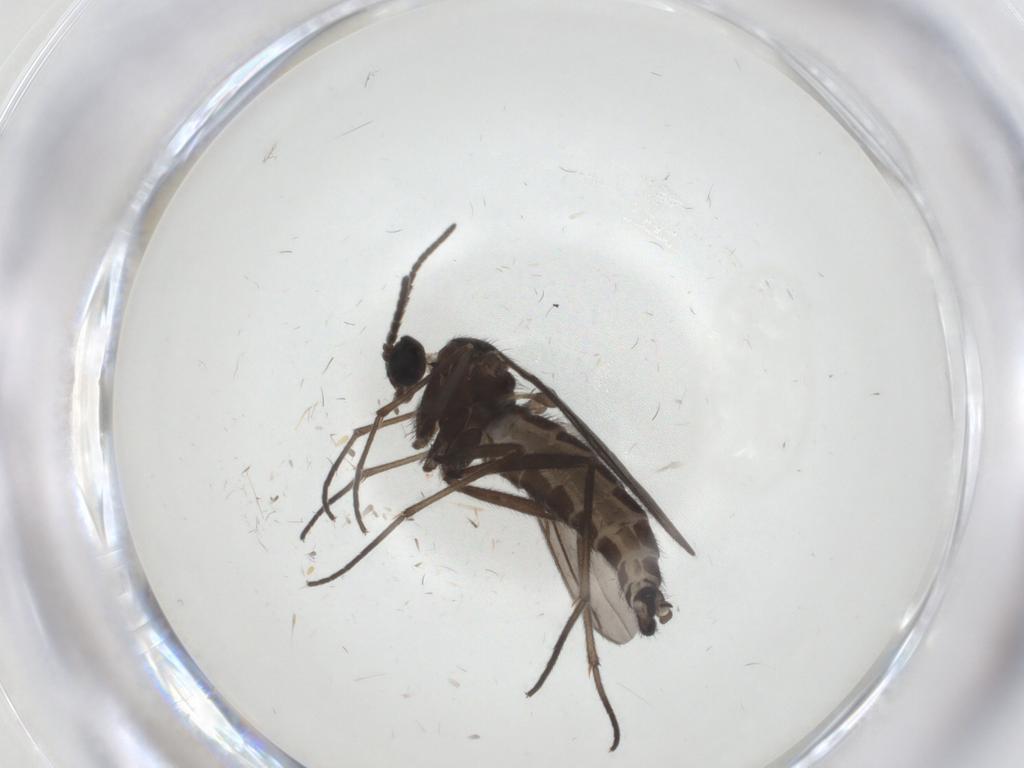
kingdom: Animalia
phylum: Arthropoda
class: Insecta
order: Diptera
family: Sciaridae
